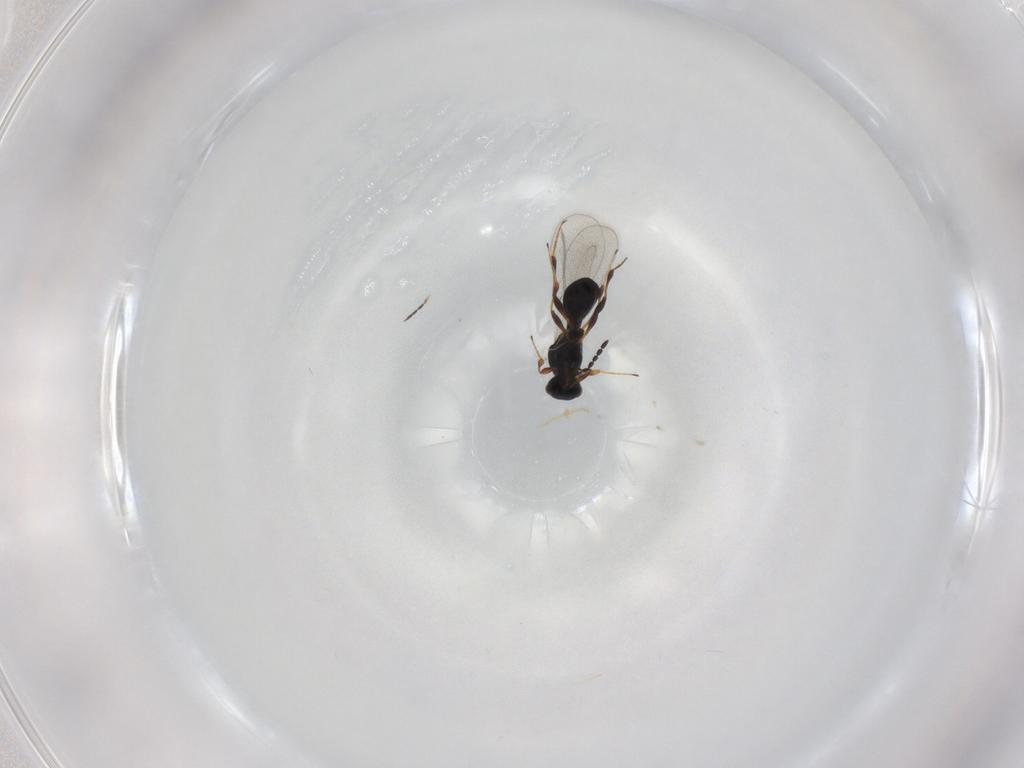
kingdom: Animalia
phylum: Arthropoda
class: Insecta
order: Hymenoptera
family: Platygastridae
